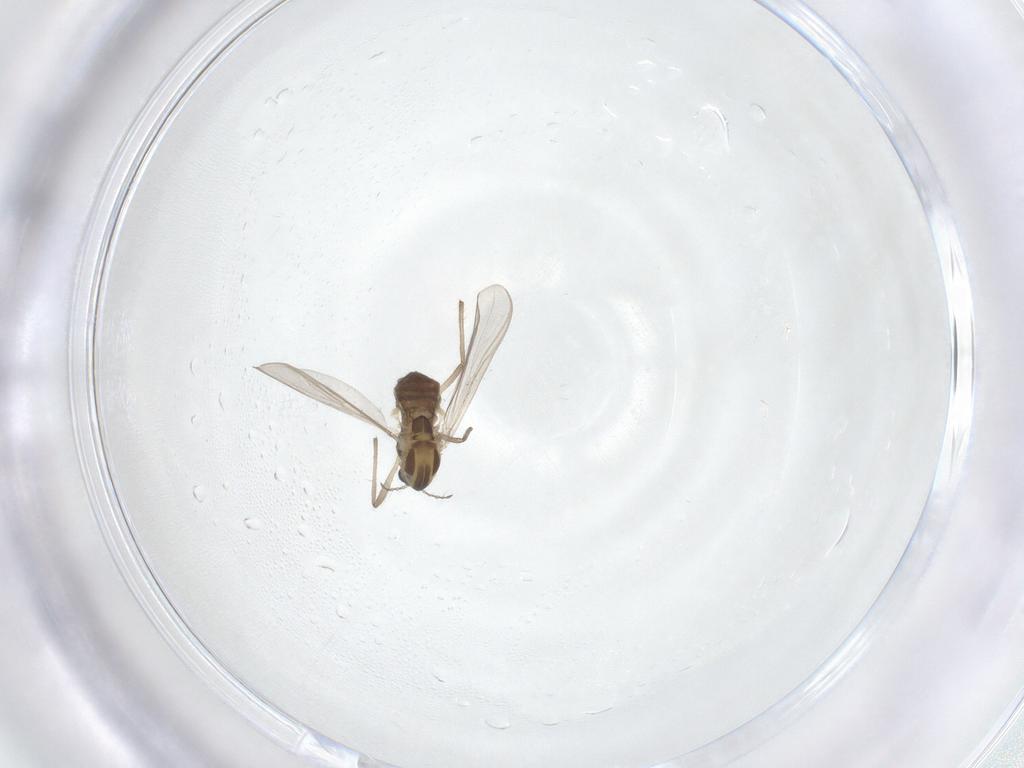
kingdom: Animalia
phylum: Arthropoda
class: Insecta
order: Diptera
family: Chironomidae
